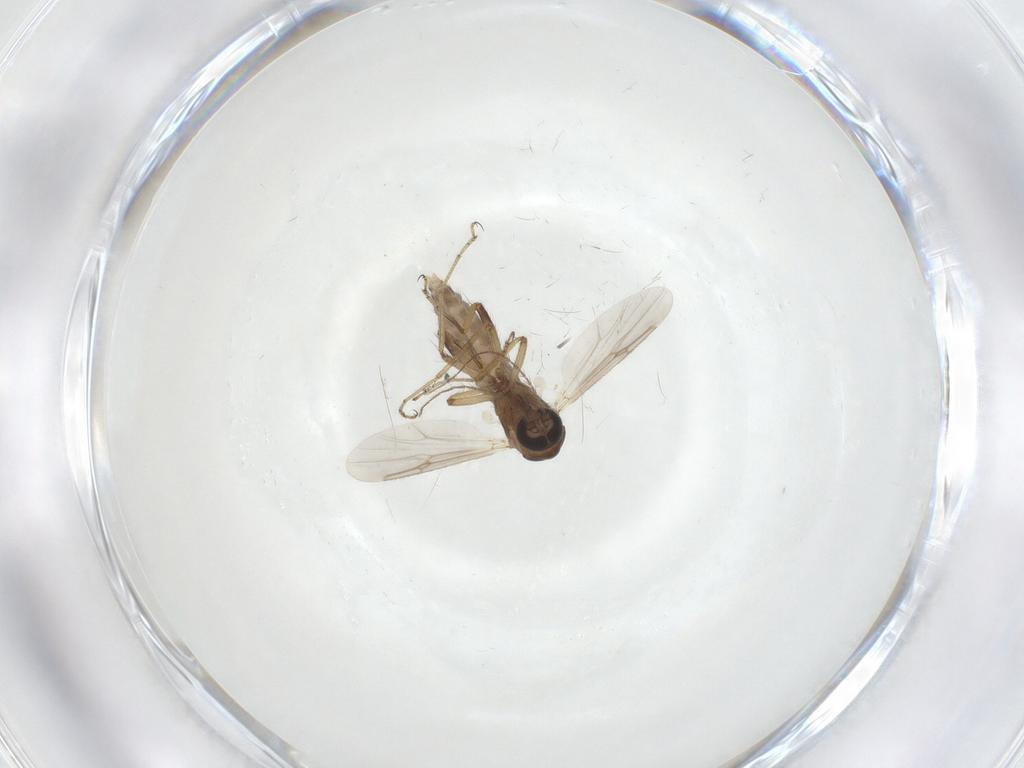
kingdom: Animalia
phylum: Arthropoda
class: Insecta
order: Diptera
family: Ceratopogonidae
